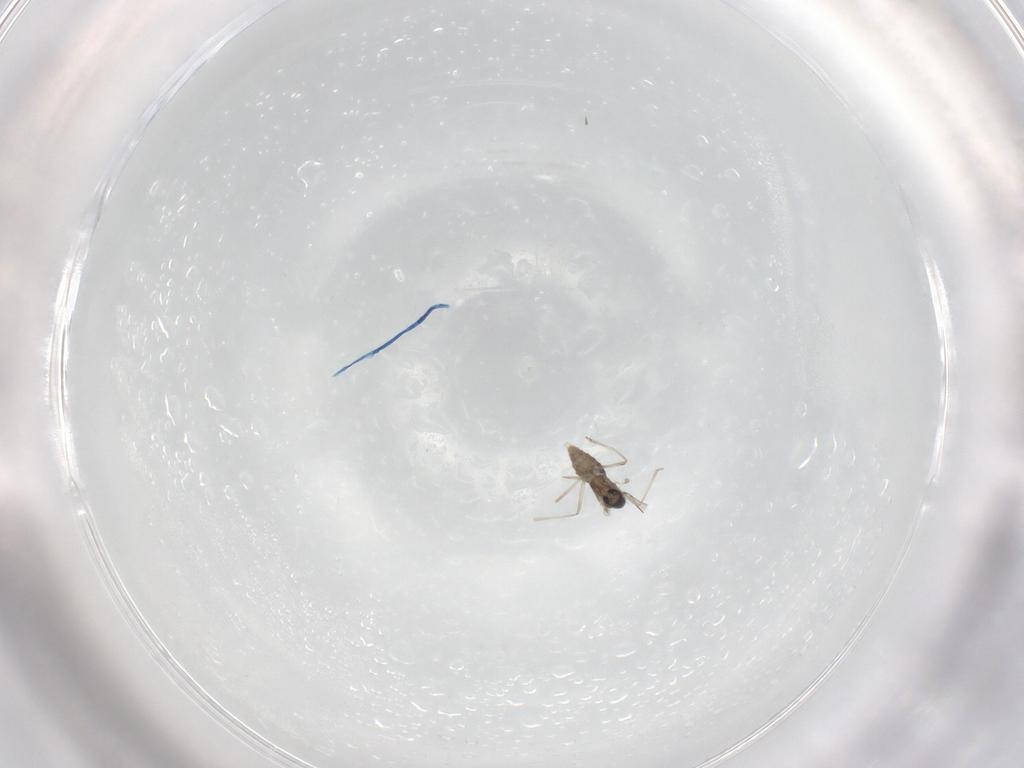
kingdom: Animalia
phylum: Arthropoda
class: Insecta
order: Diptera
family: Cecidomyiidae
